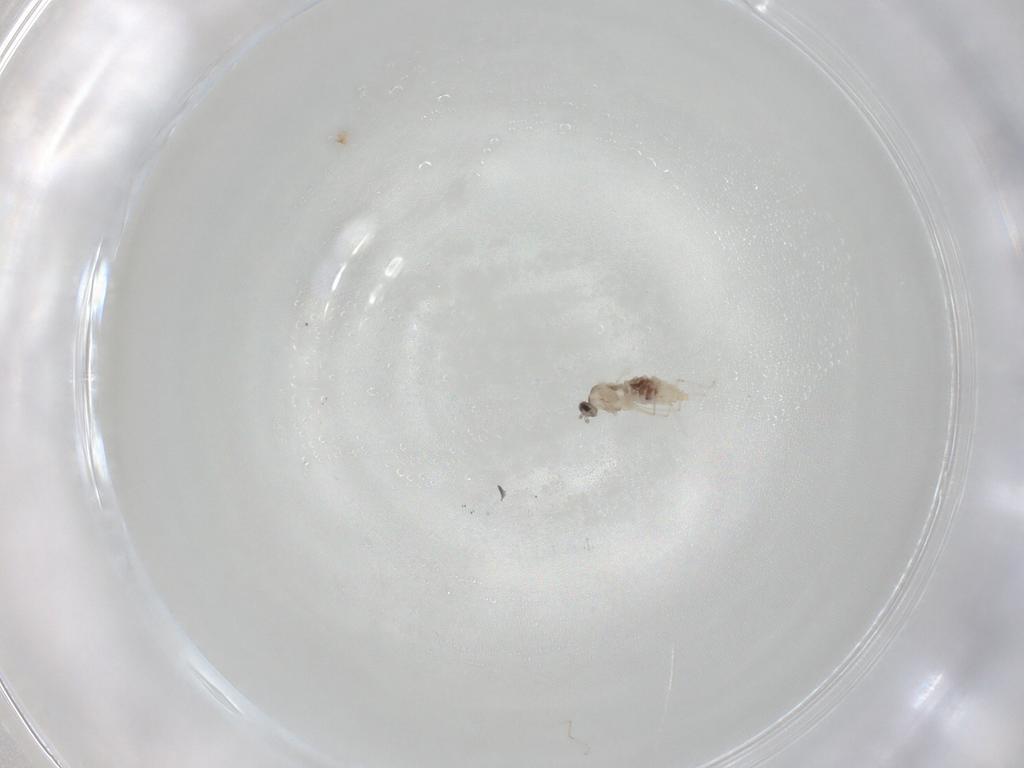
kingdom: Animalia
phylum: Arthropoda
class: Insecta
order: Diptera
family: Cecidomyiidae
